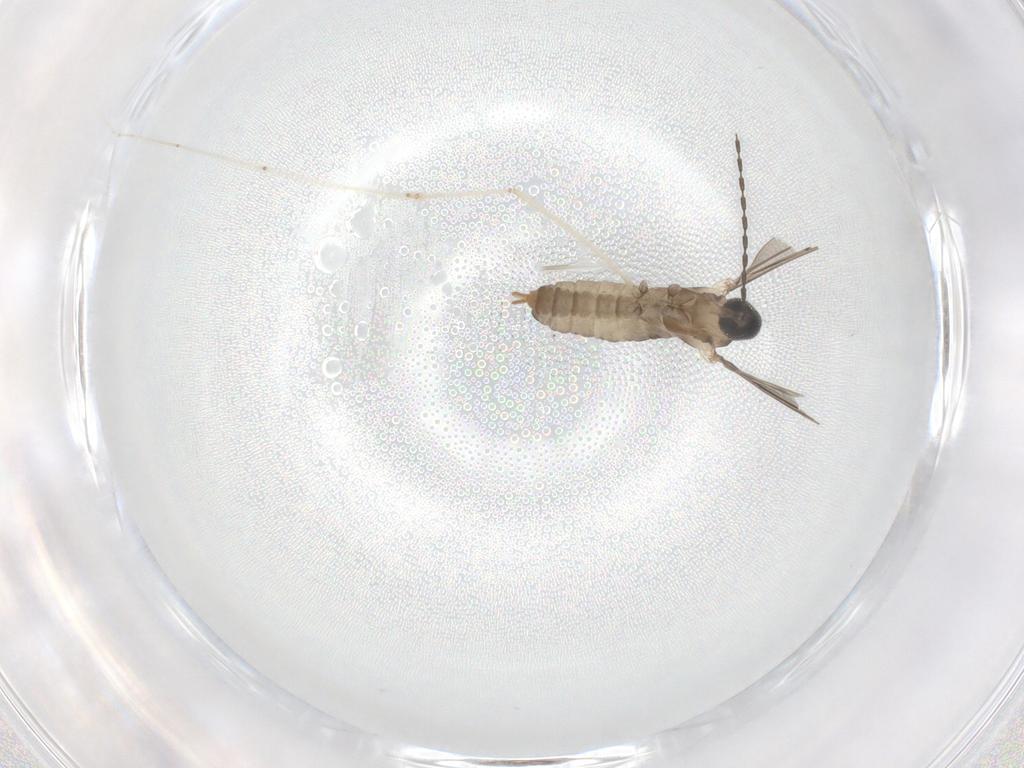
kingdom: Animalia
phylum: Arthropoda
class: Insecta
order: Diptera
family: Cecidomyiidae
